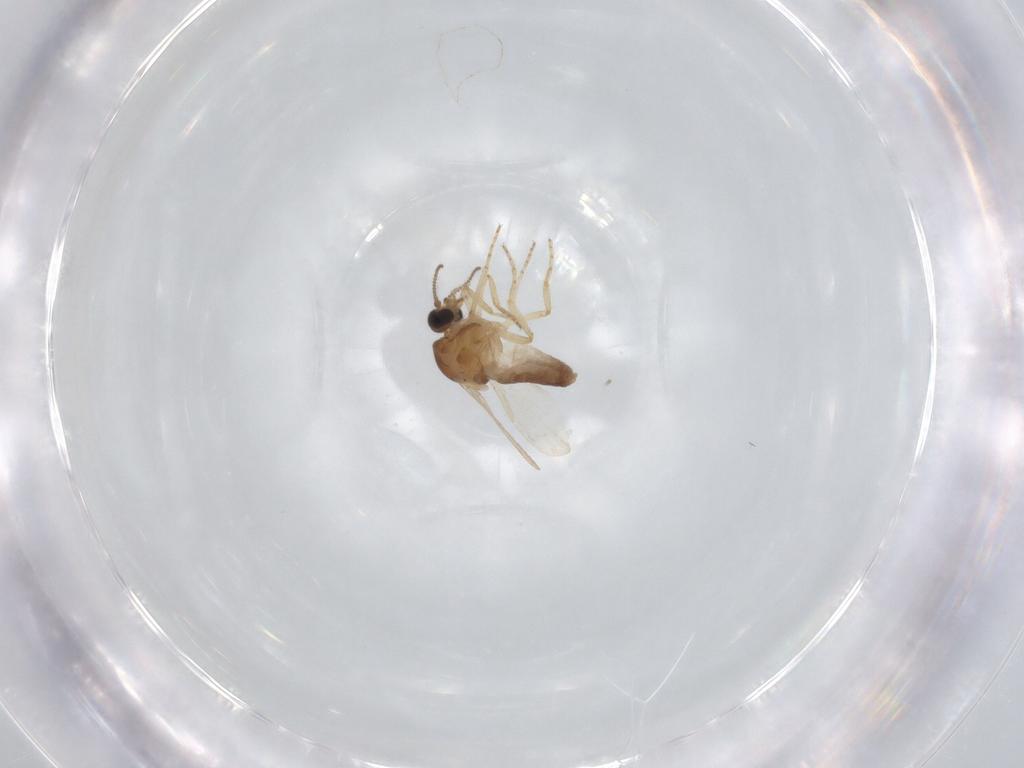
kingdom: Animalia
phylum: Arthropoda
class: Insecta
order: Diptera
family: Ceratopogonidae
